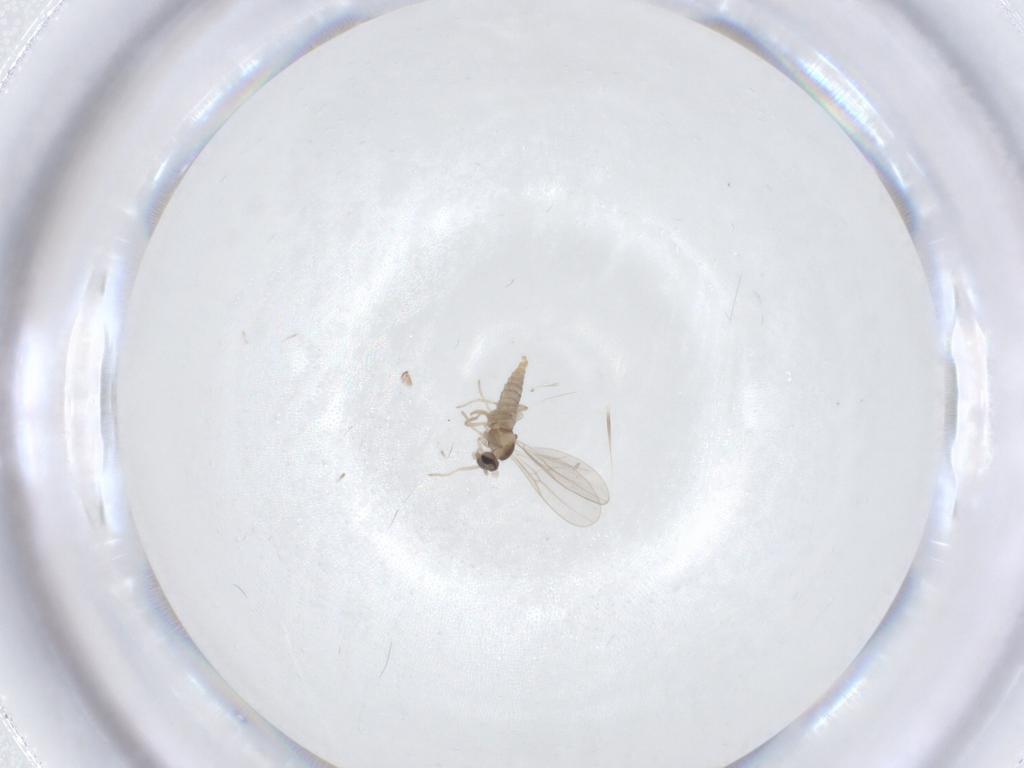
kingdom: Animalia
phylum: Arthropoda
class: Insecta
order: Diptera
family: Cecidomyiidae
